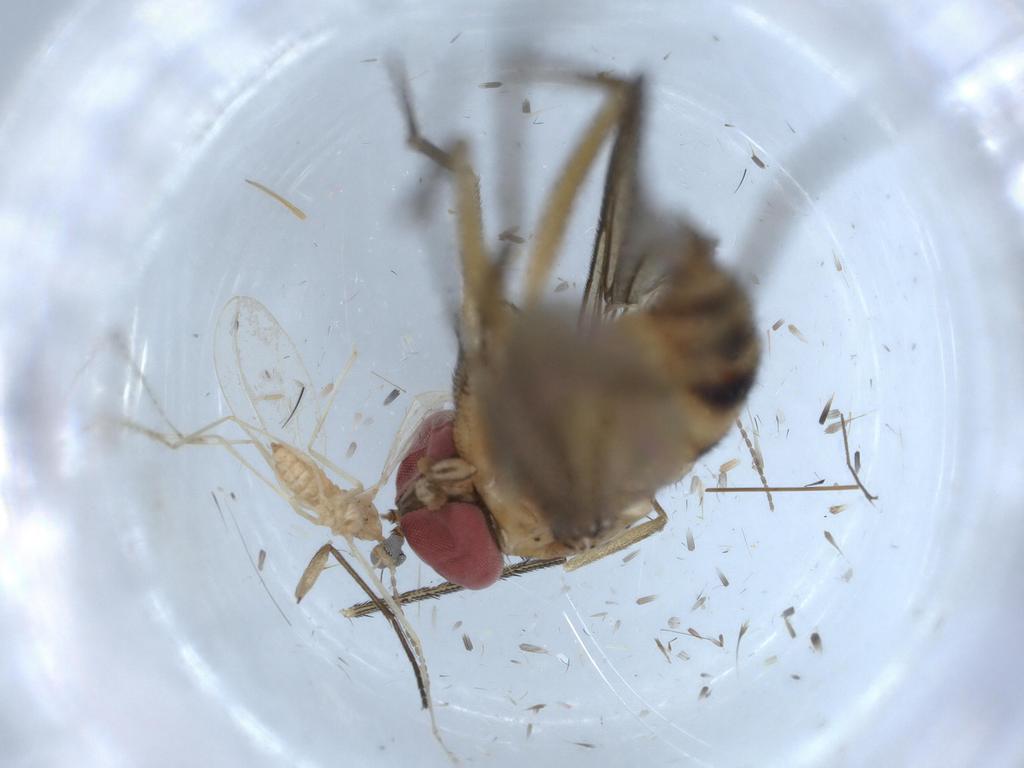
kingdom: Animalia
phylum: Arthropoda
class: Insecta
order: Diptera
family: Dolichopodidae
